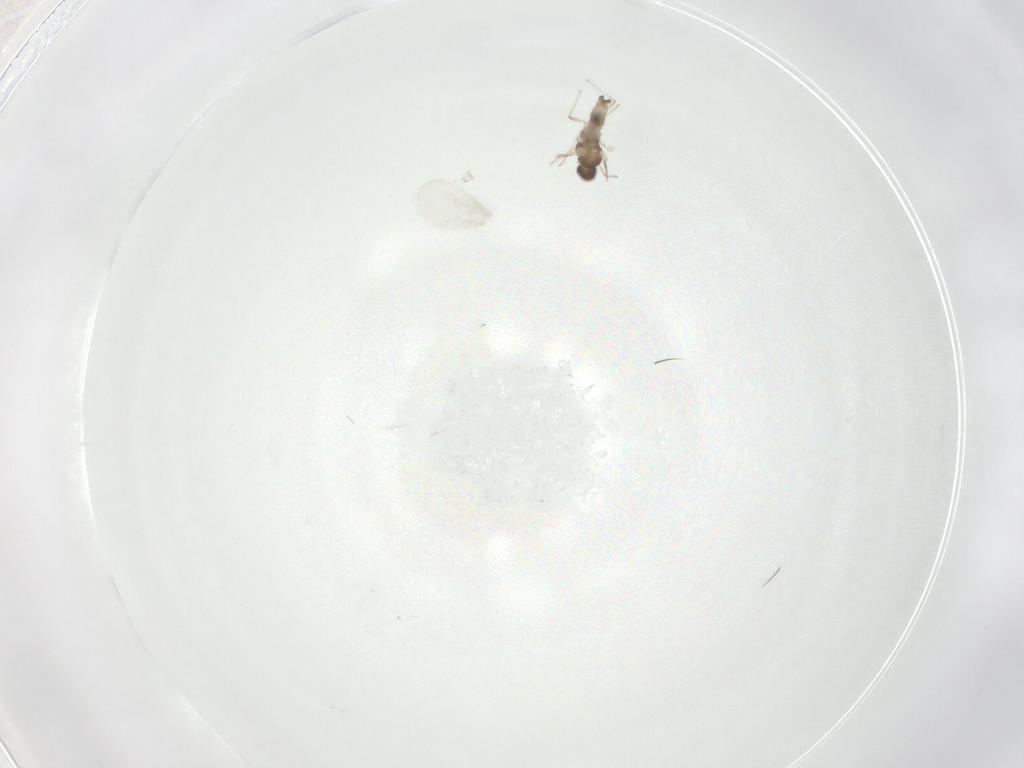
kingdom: Animalia
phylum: Arthropoda
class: Insecta
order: Diptera
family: Cecidomyiidae
